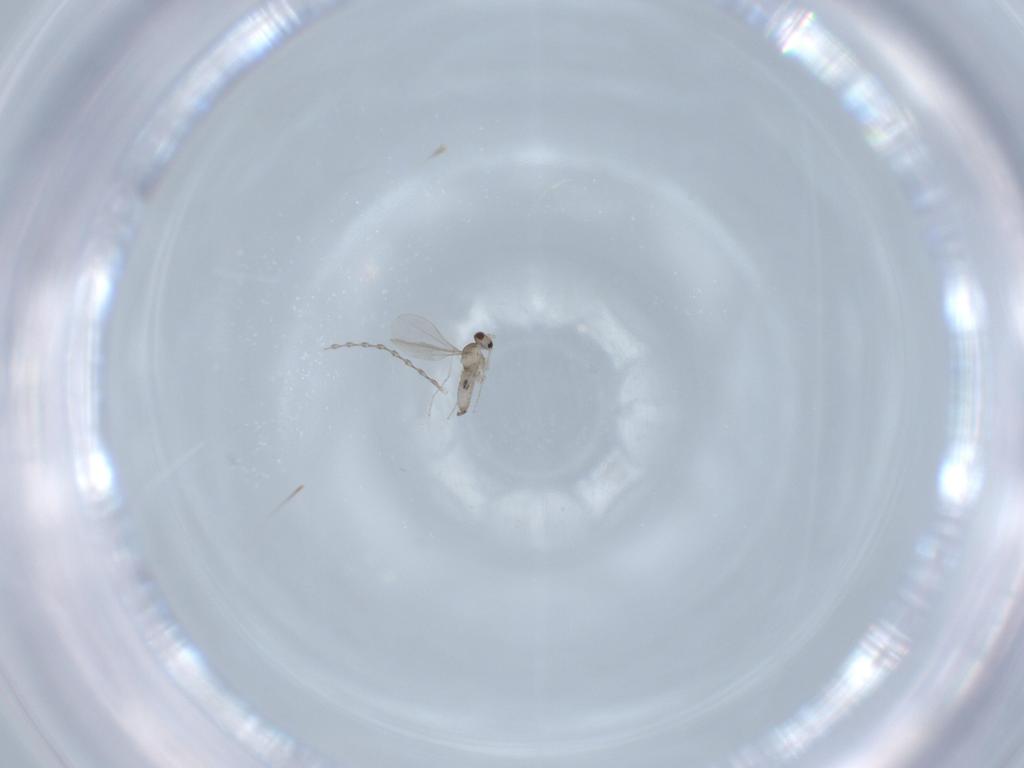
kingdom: Animalia
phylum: Arthropoda
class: Insecta
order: Diptera
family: Cecidomyiidae
